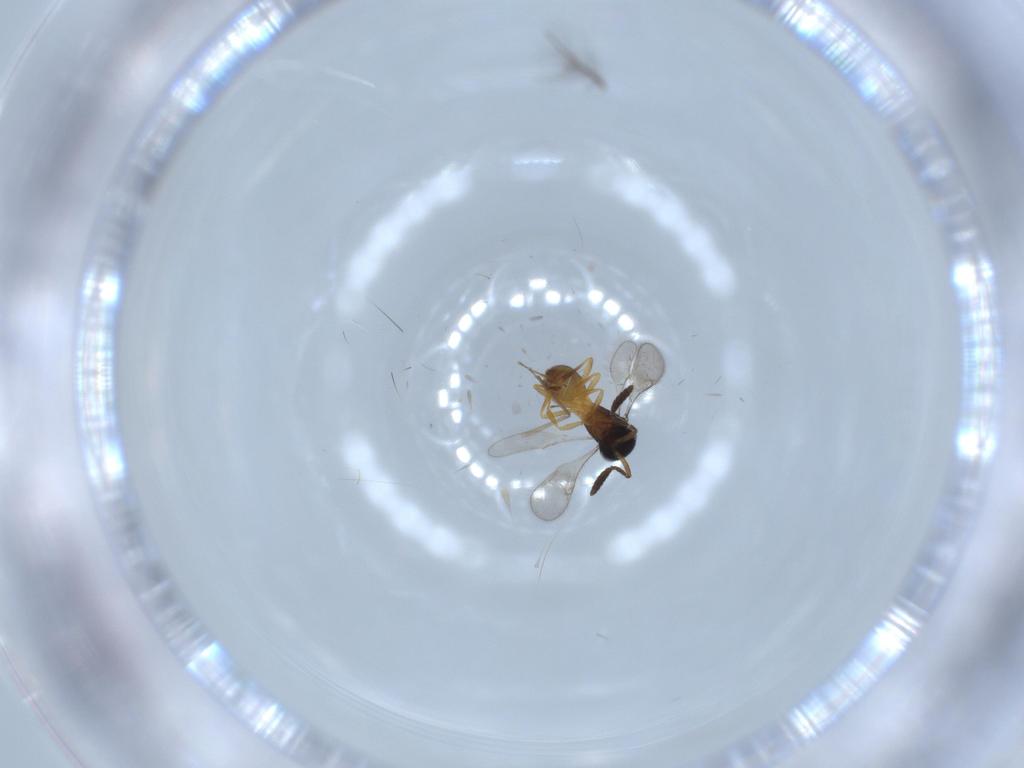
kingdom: Animalia
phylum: Arthropoda
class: Insecta
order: Hymenoptera
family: Scelionidae
